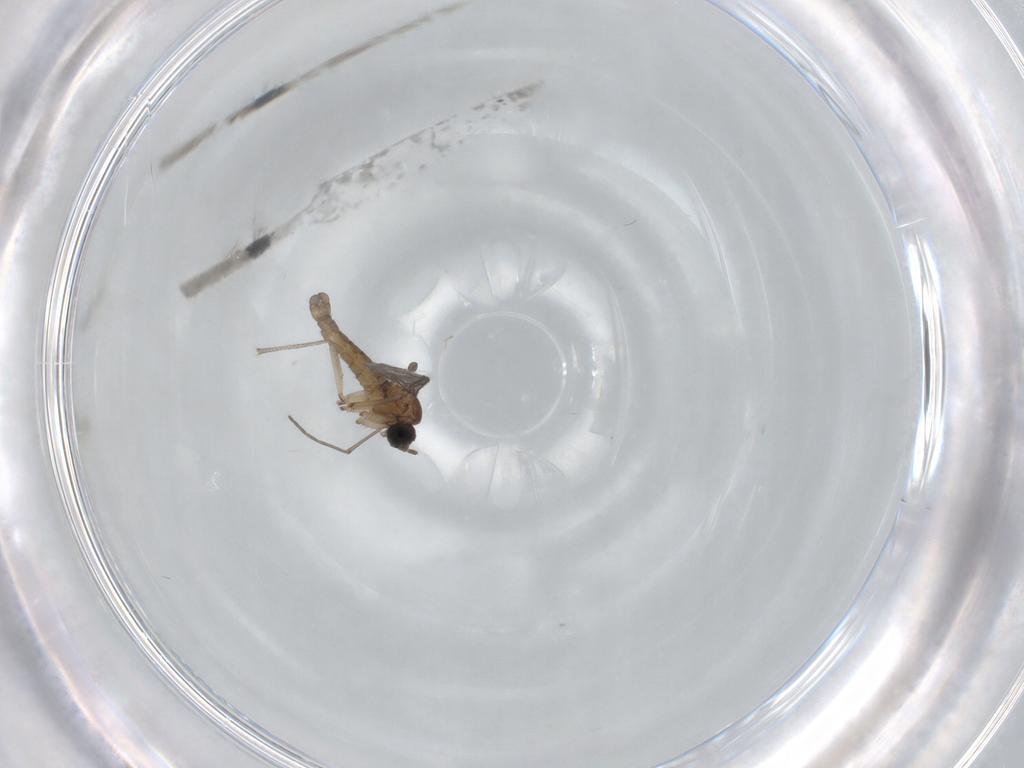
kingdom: Animalia
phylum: Arthropoda
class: Insecta
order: Diptera
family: Sciaridae
